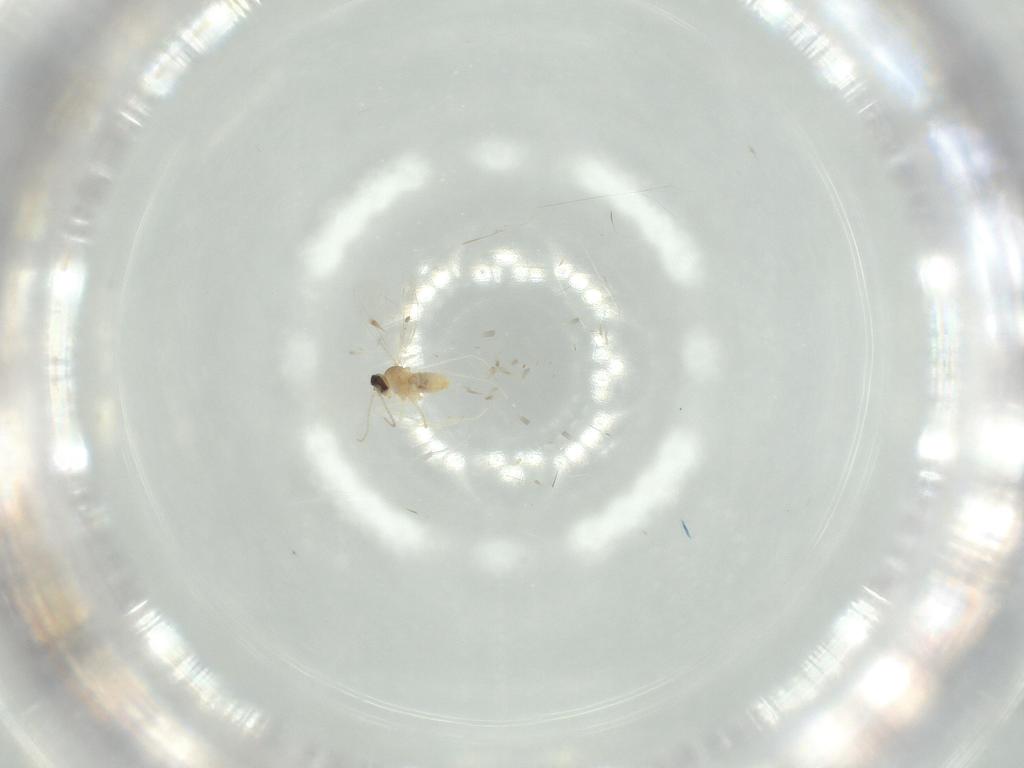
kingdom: Animalia
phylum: Arthropoda
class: Insecta
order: Diptera
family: Cecidomyiidae
